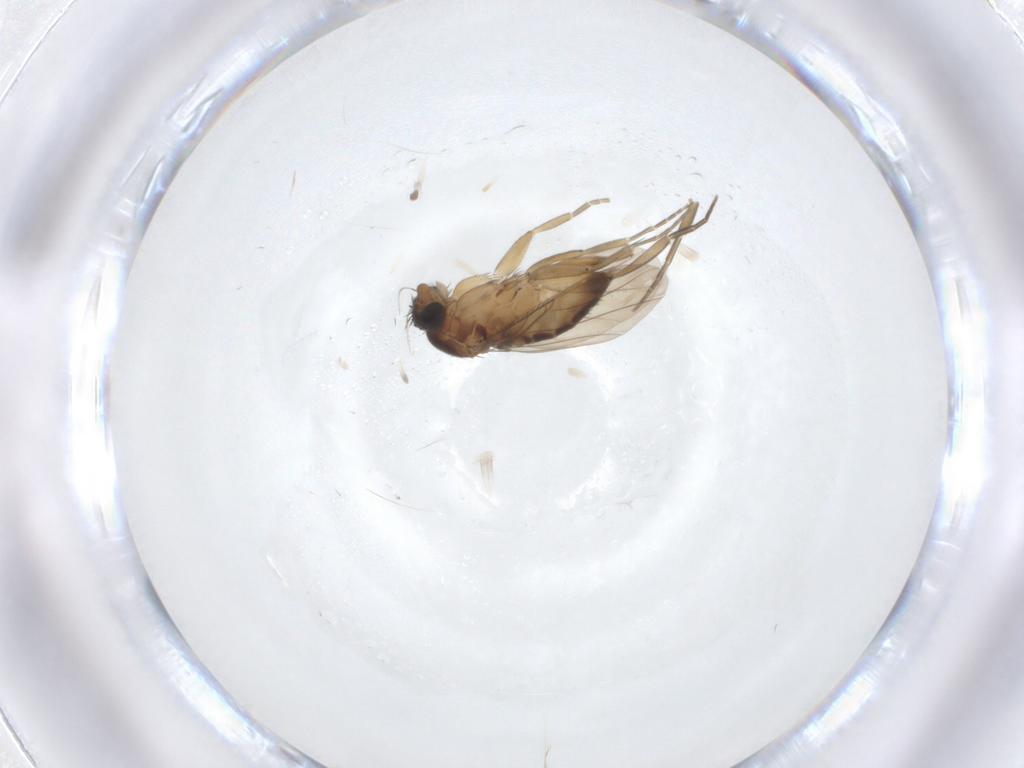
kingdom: Animalia
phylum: Arthropoda
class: Insecta
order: Diptera
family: Phoridae
